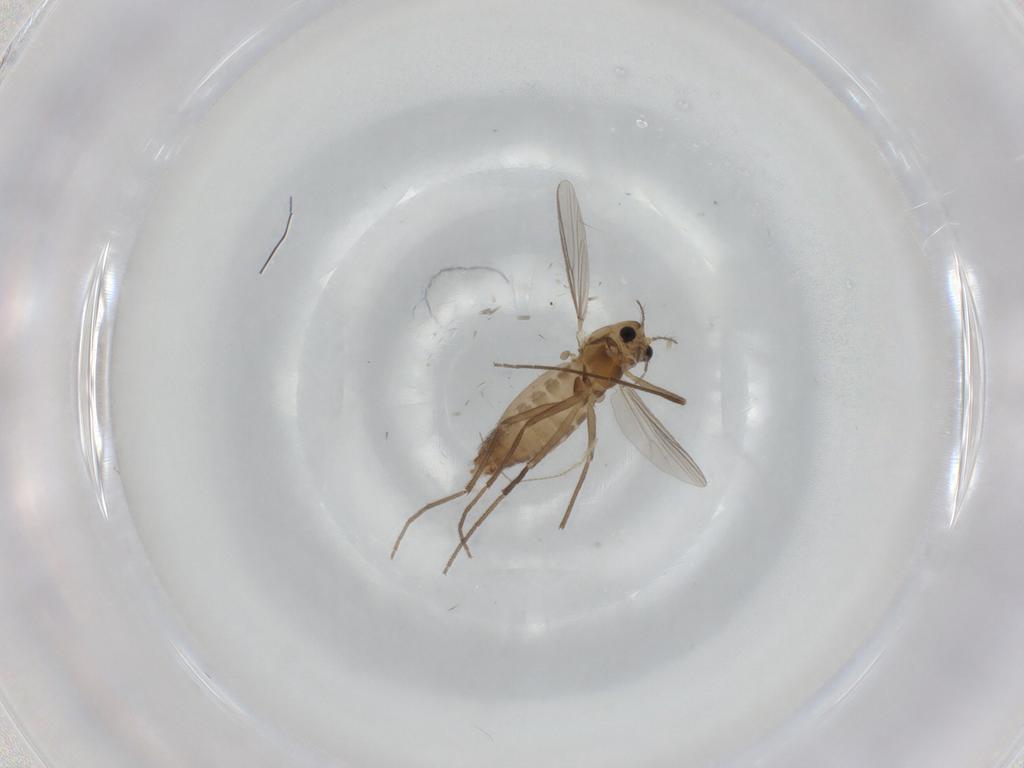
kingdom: Animalia
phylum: Arthropoda
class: Insecta
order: Diptera
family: Chironomidae
